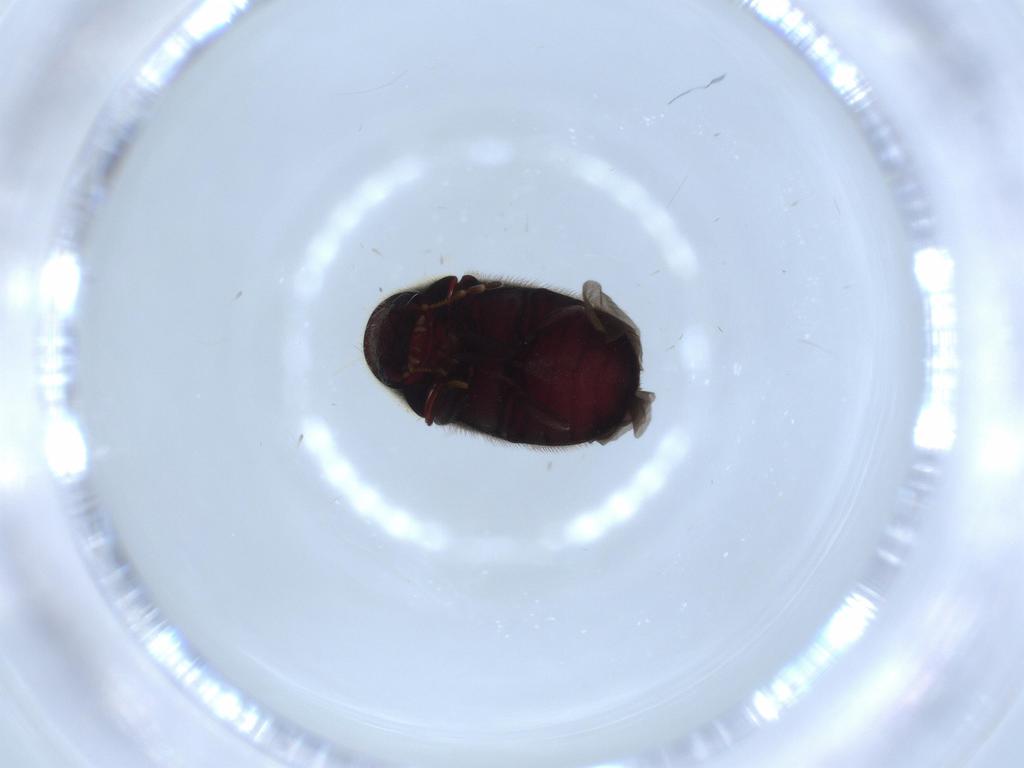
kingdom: Animalia
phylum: Arthropoda
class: Insecta
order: Coleoptera
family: Ptinidae
